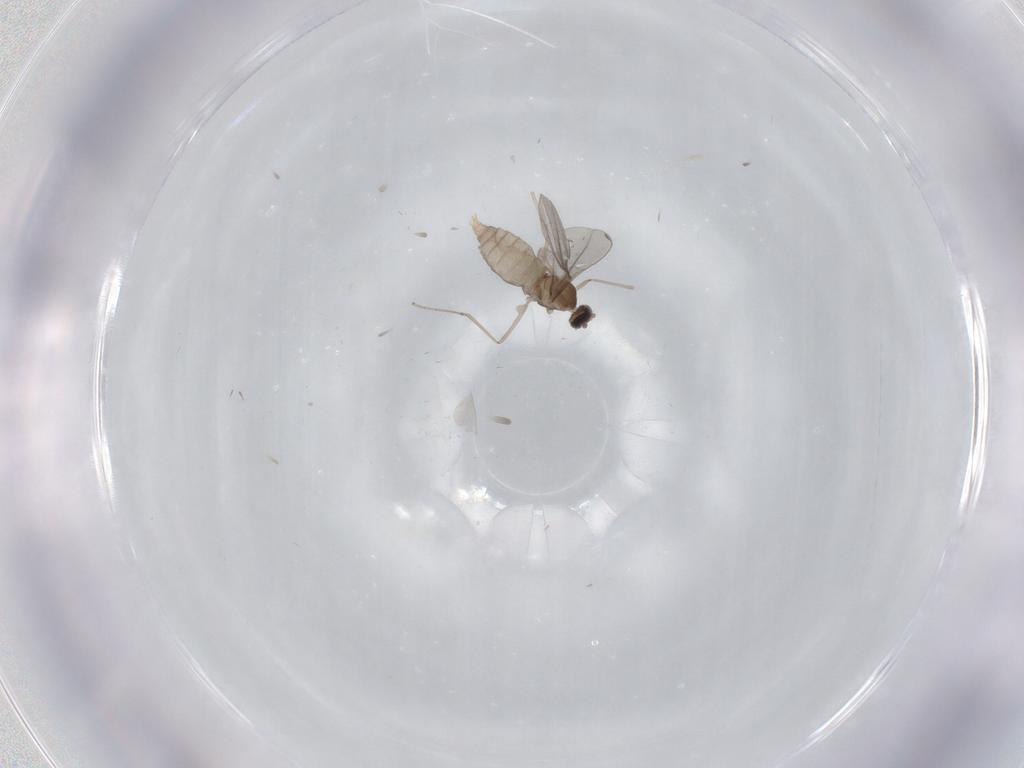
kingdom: Animalia
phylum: Arthropoda
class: Insecta
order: Diptera
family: Cecidomyiidae
